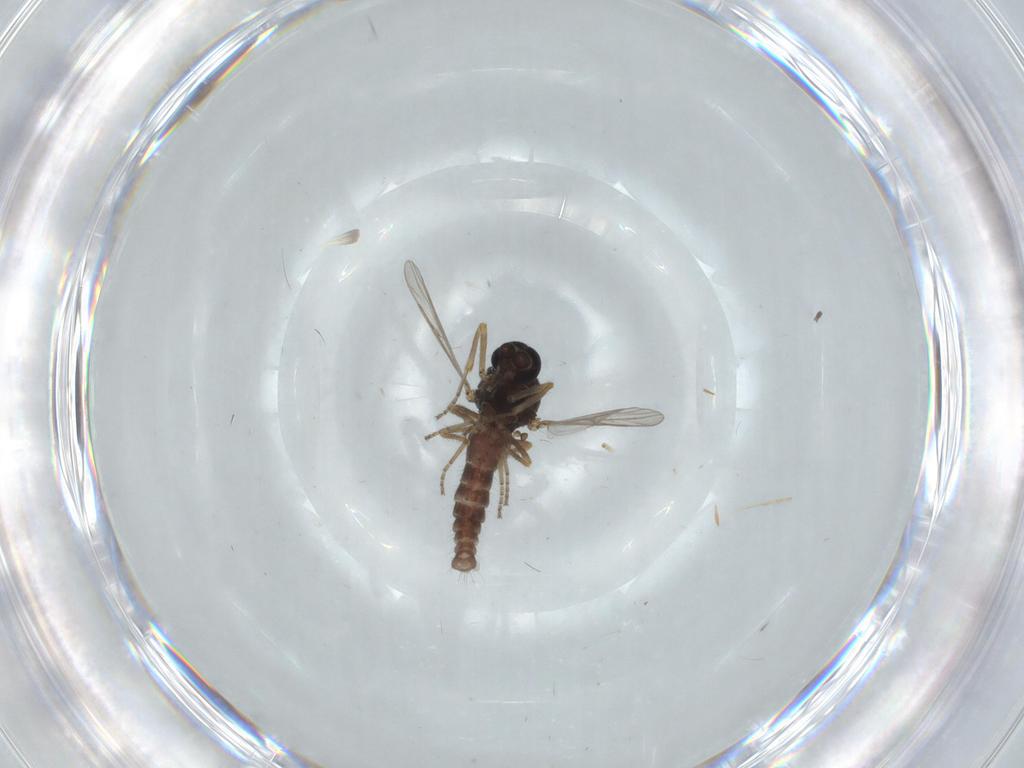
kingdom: Animalia
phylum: Arthropoda
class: Insecta
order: Diptera
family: Ceratopogonidae
